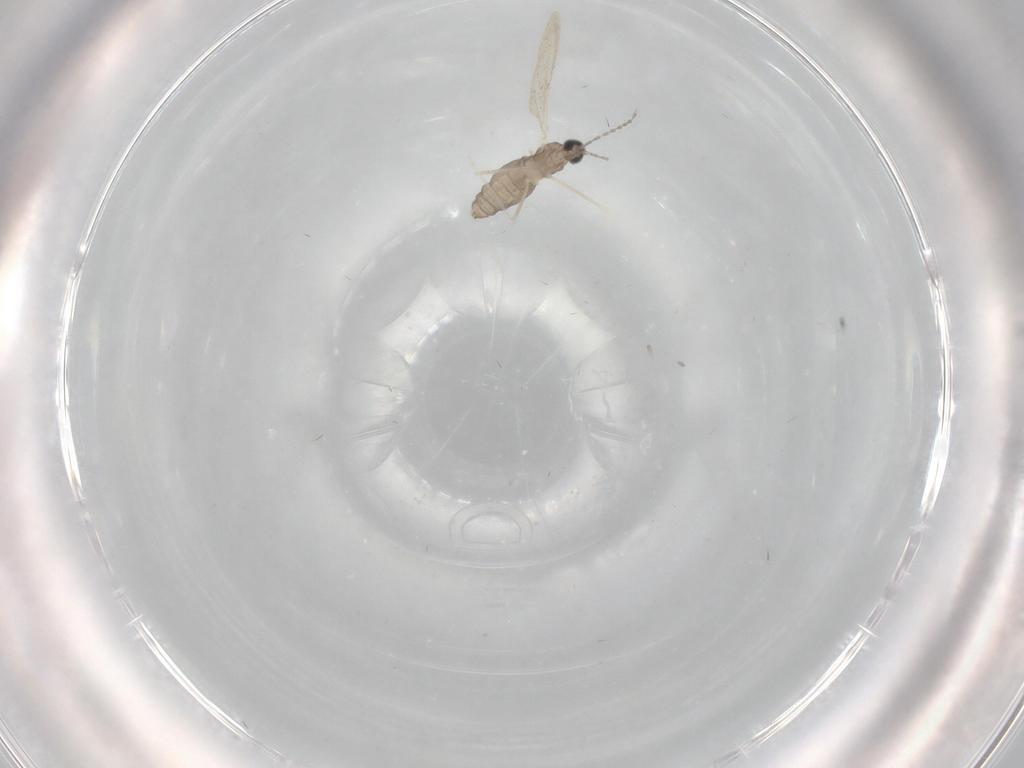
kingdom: Animalia
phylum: Arthropoda
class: Insecta
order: Diptera
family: Cecidomyiidae
